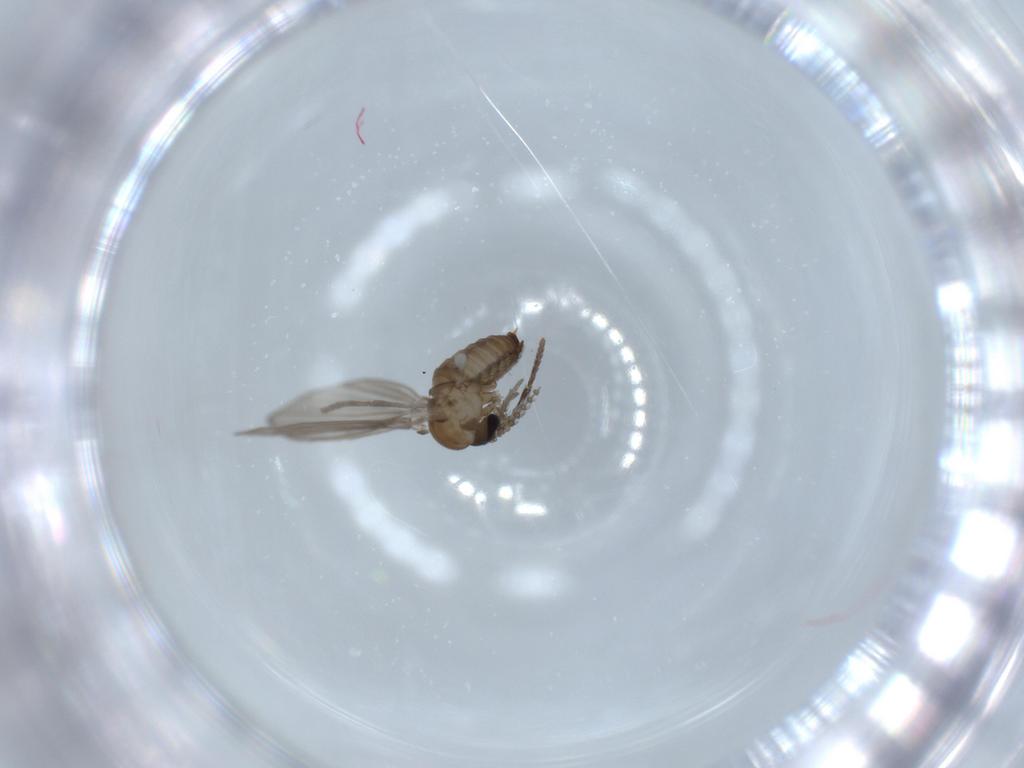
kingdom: Animalia
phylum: Arthropoda
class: Insecta
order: Diptera
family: Psychodidae
